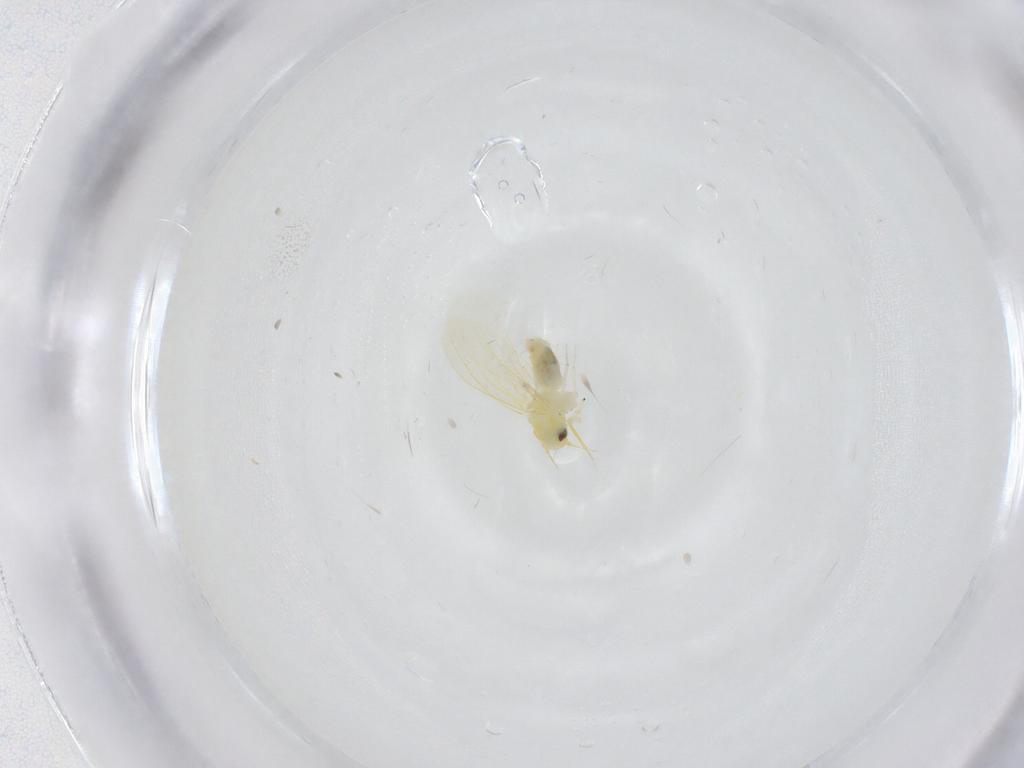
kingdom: Animalia
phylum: Arthropoda
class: Insecta
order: Hemiptera
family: Aleyrodidae
